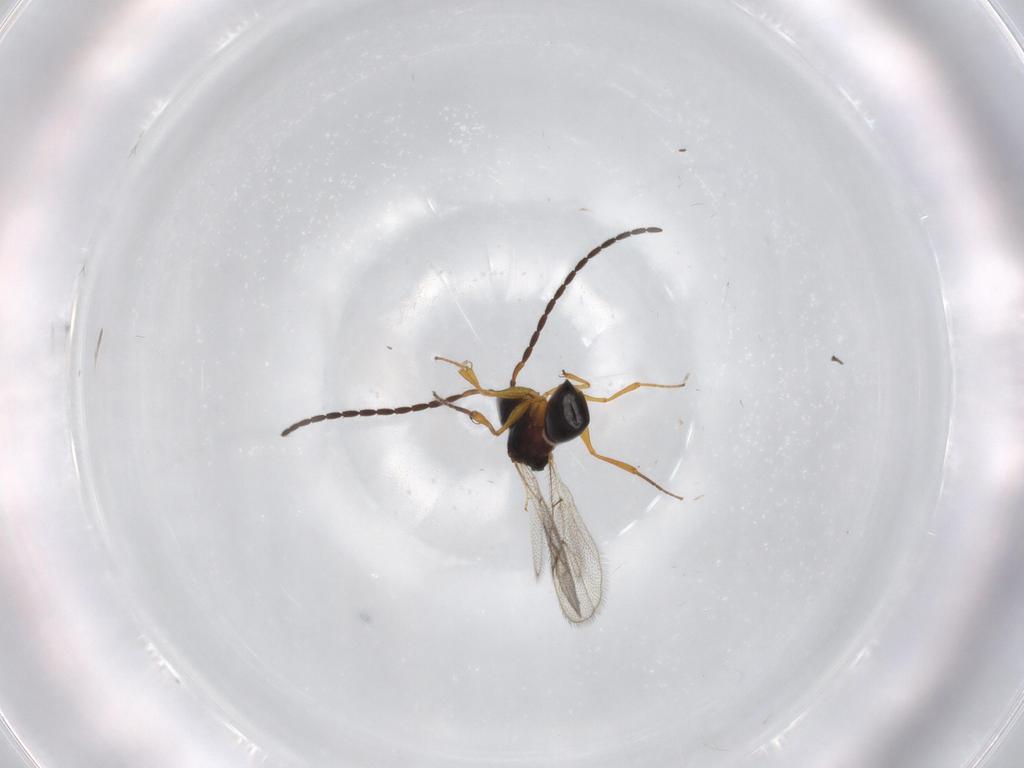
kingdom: Animalia
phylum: Arthropoda
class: Insecta
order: Hymenoptera
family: Figitidae
